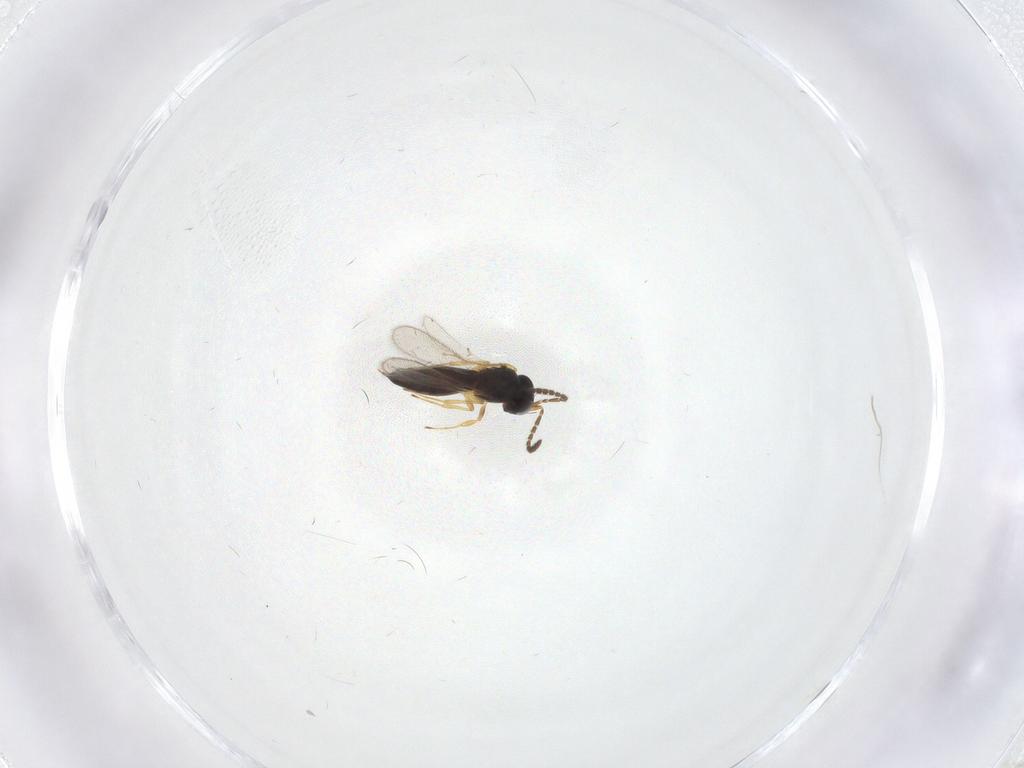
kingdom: Animalia
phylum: Arthropoda
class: Insecta
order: Hymenoptera
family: Scelionidae
